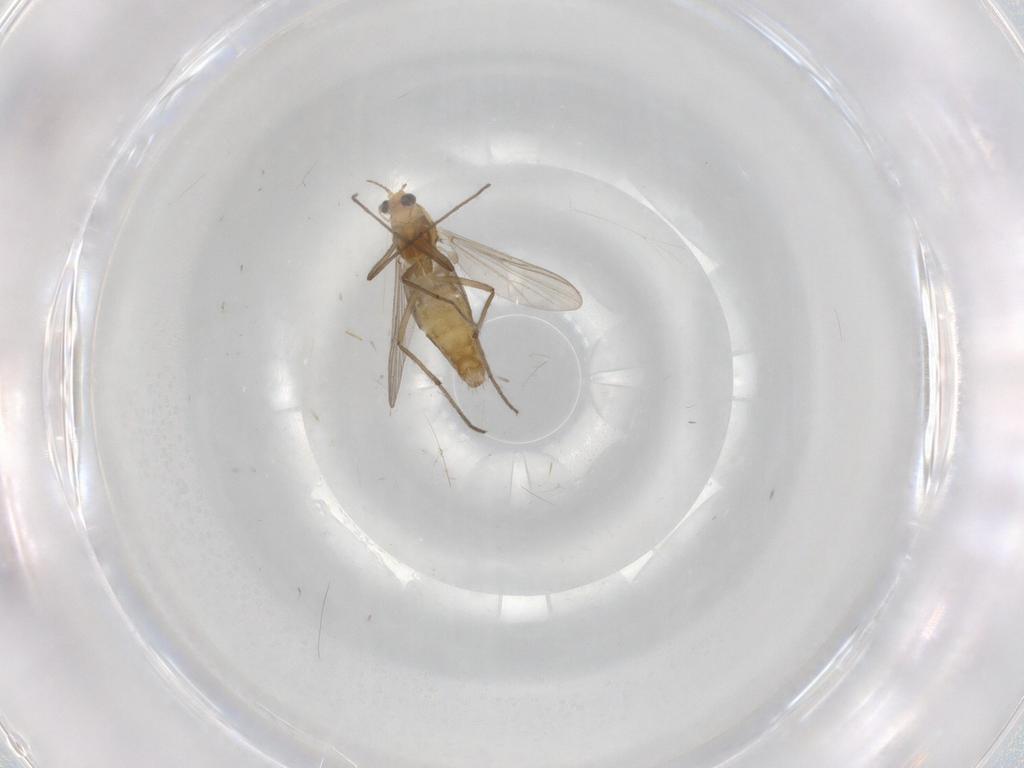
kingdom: Animalia
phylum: Arthropoda
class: Insecta
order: Diptera
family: Chironomidae
